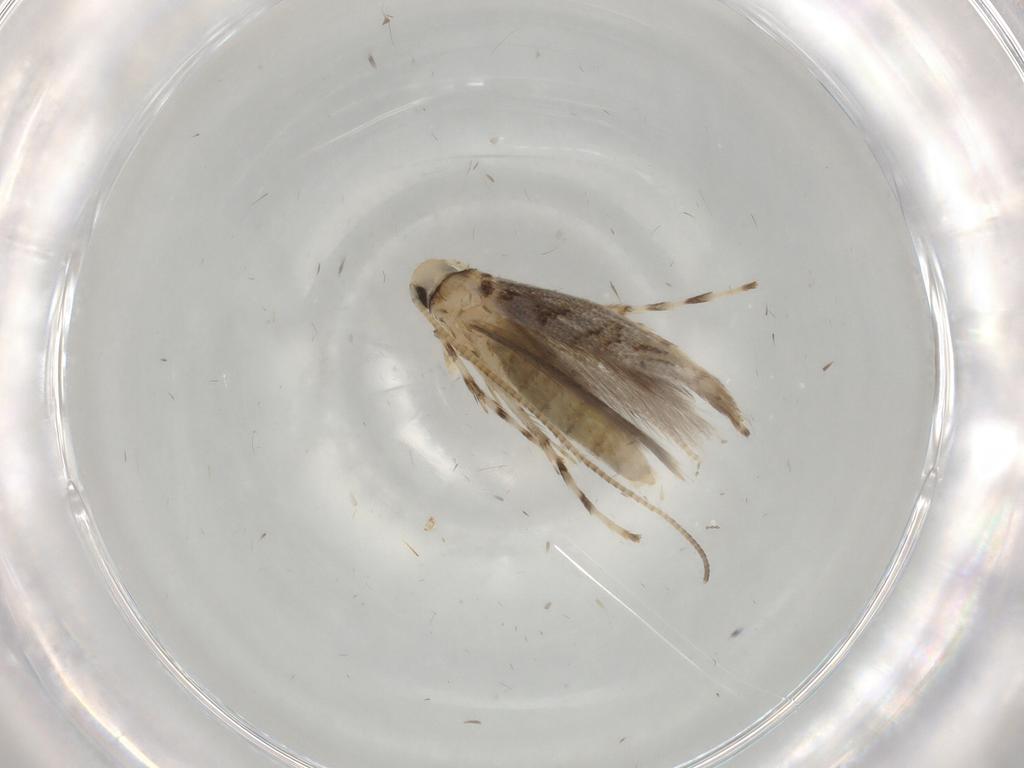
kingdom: Animalia
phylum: Arthropoda
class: Insecta
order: Lepidoptera
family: Gracillariidae
